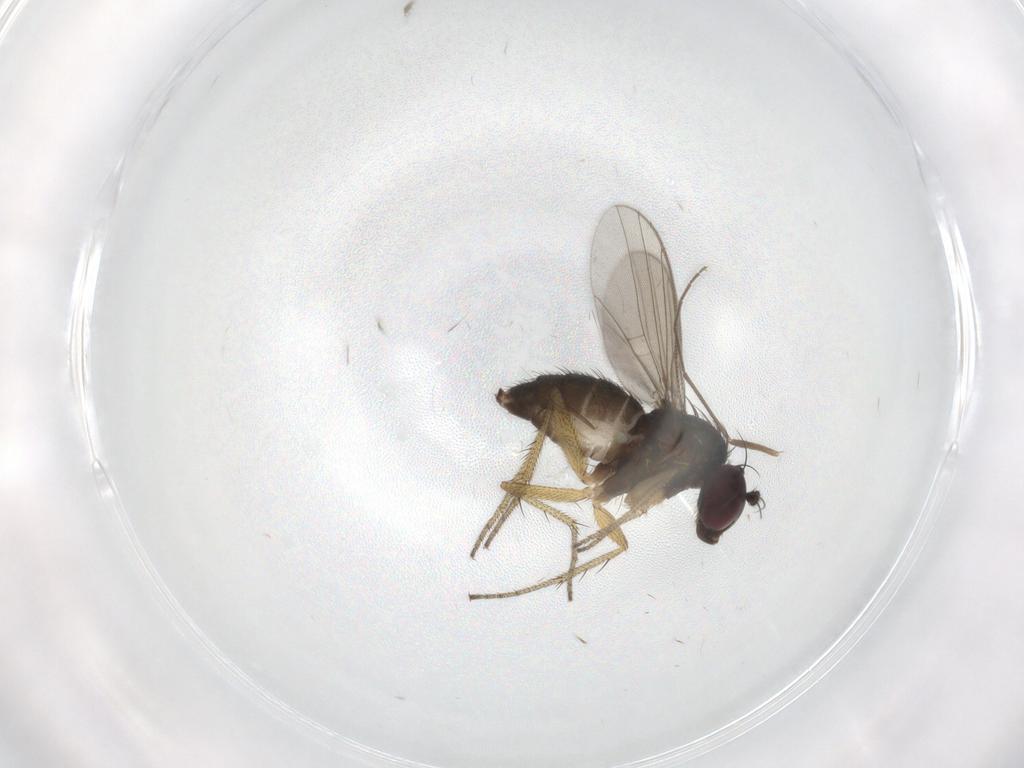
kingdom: Animalia
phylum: Arthropoda
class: Insecta
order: Diptera
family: Chironomidae
